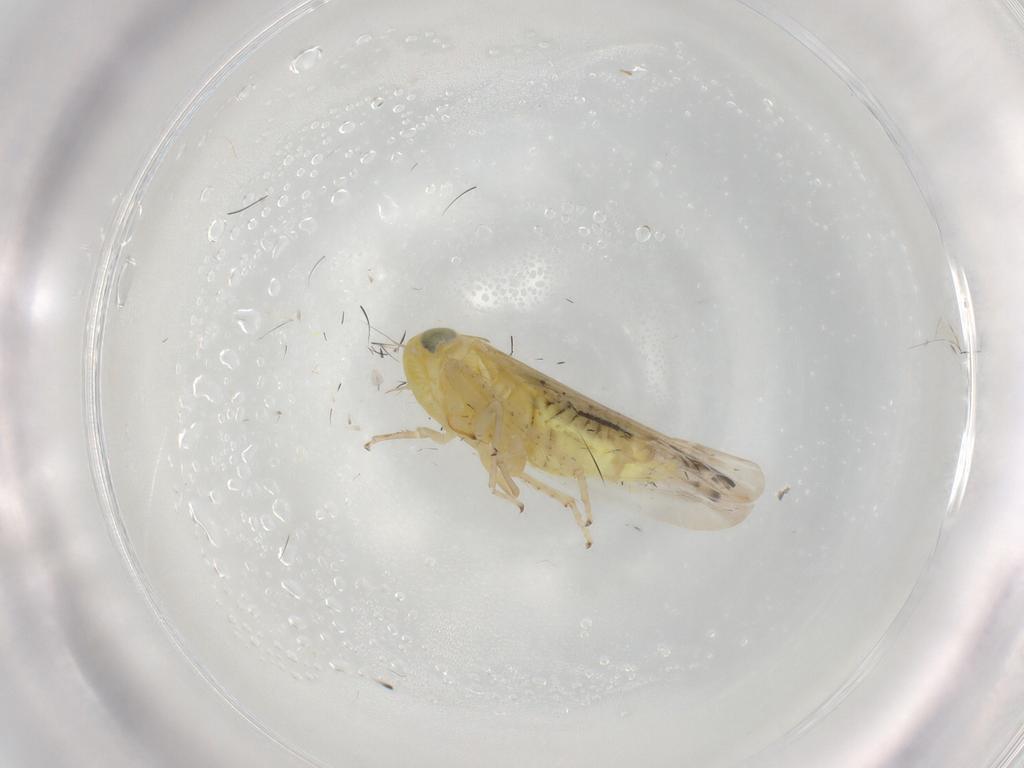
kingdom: Animalia
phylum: Arthropoda
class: Insecta
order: Lepidoptera
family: Noctuidae
